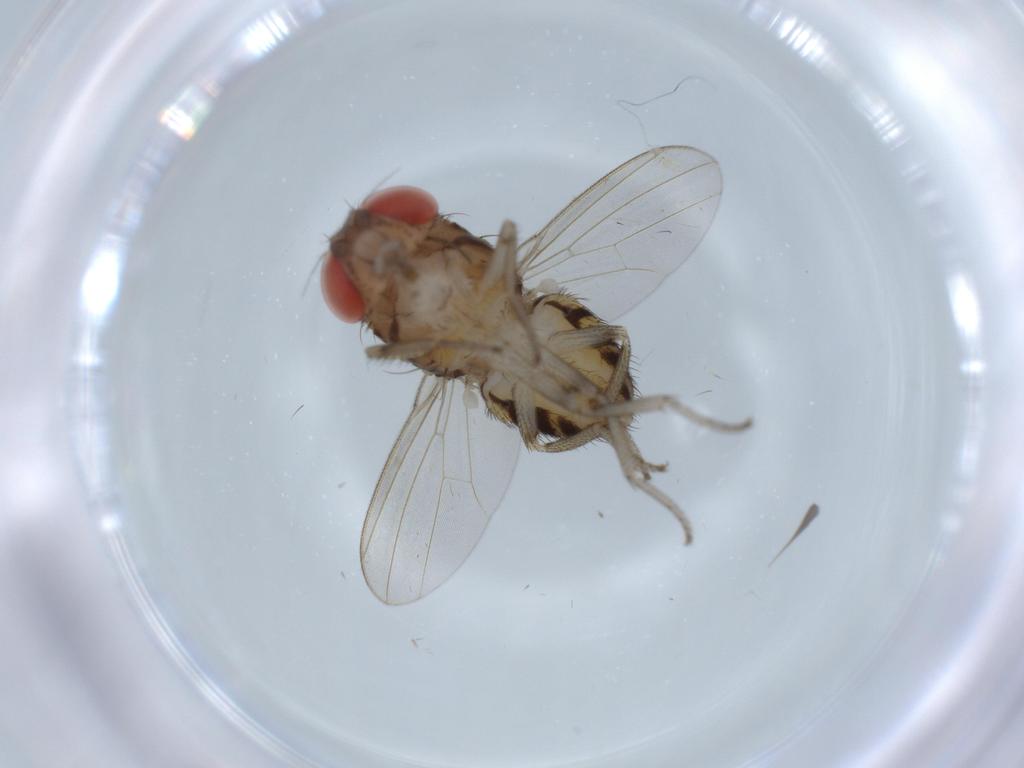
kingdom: Animalia
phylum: Arthropoda
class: Insecta
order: Diptera
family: Drosophilidae
